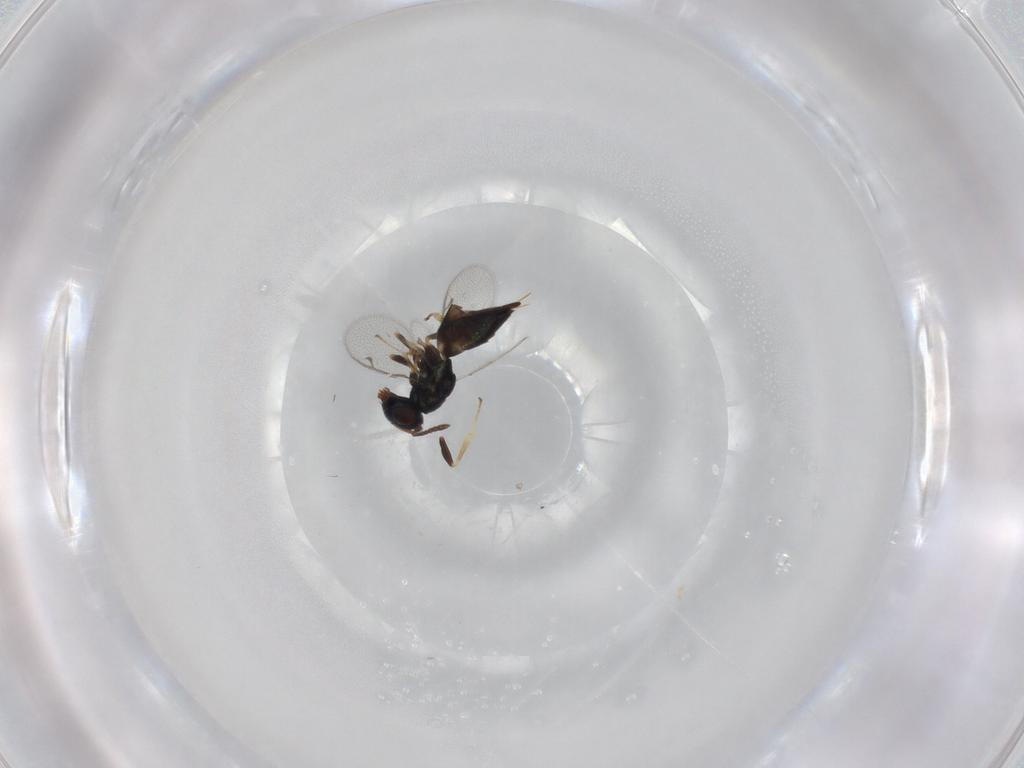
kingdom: Animalia
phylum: Arthropoda
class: Insecta
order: Hymenoptera
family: Pteromalidae
